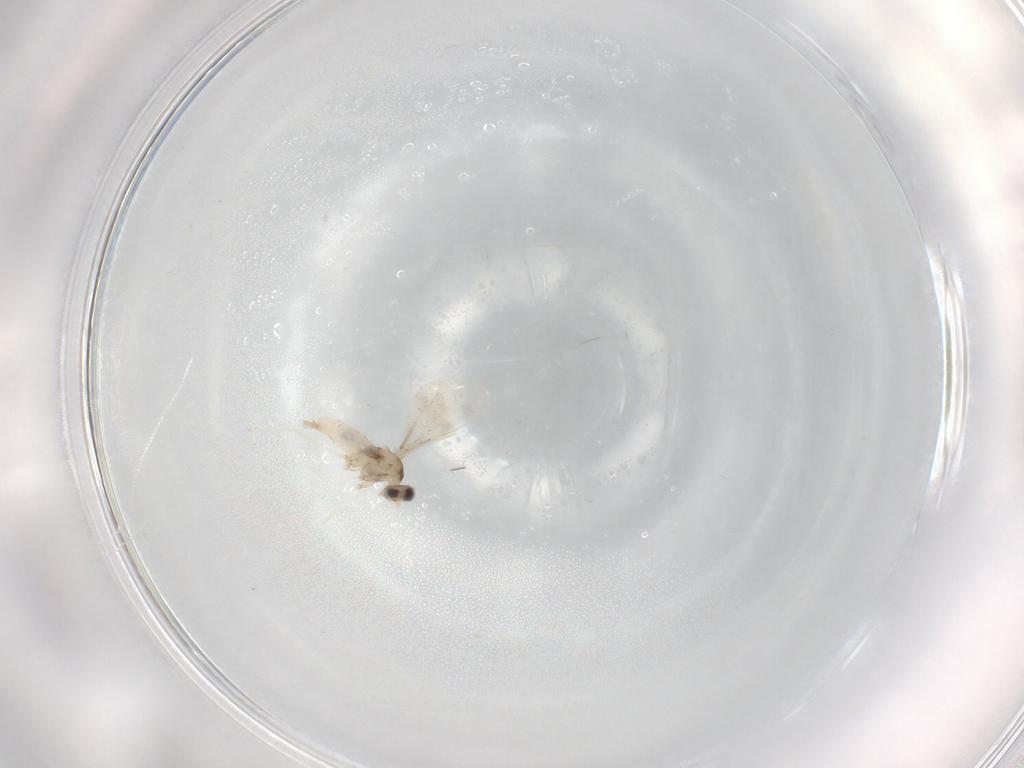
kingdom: Animalia
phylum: Arthropoda
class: Insecta
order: Diptera
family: Cecidomyiidae
